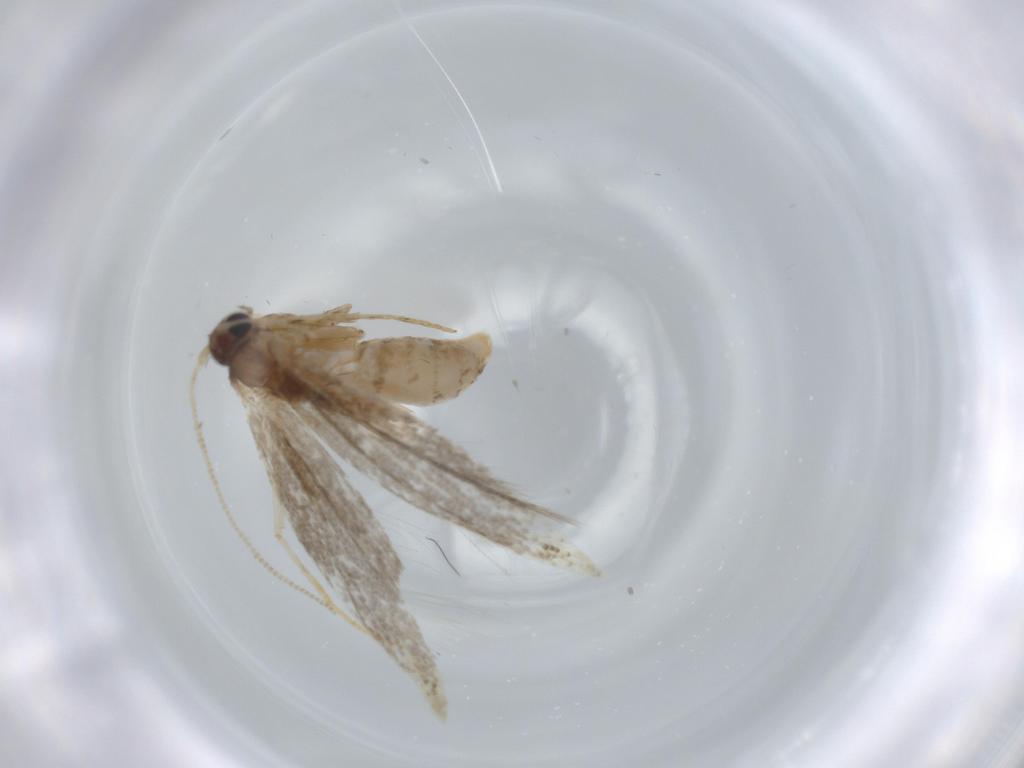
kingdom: Animalia
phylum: Arthropoda
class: Insecta
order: Lepidoptera
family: Tineidae
